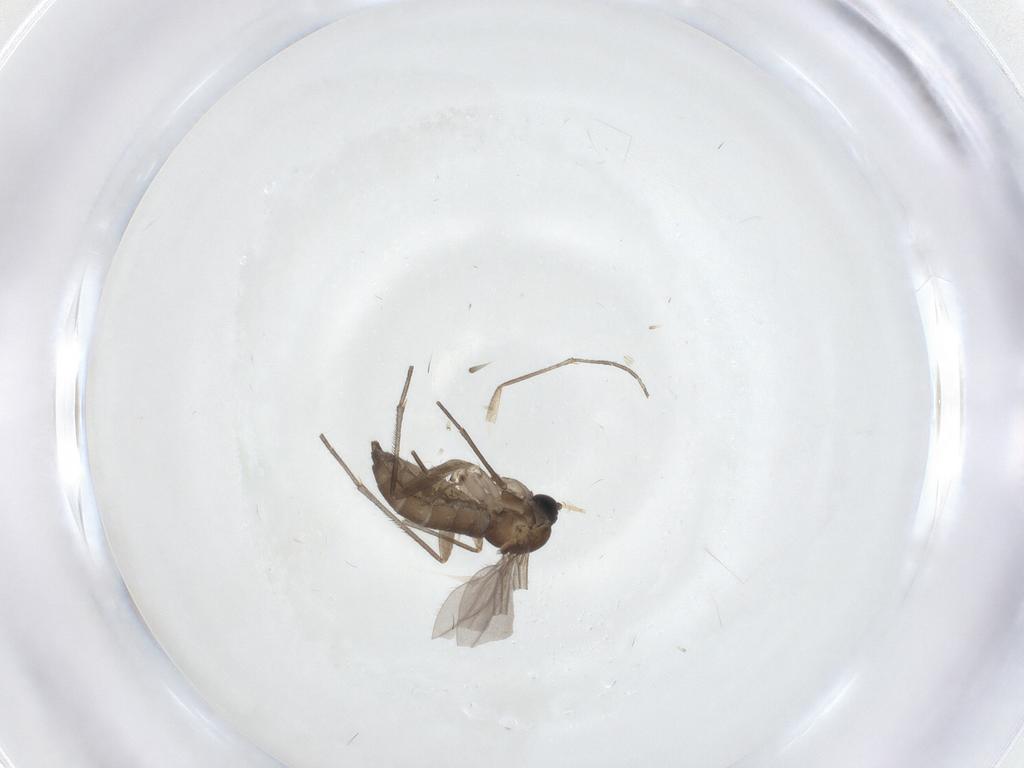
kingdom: Animalia
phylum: Arthropoda
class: Insecta
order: Diptera
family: Sciaridae
